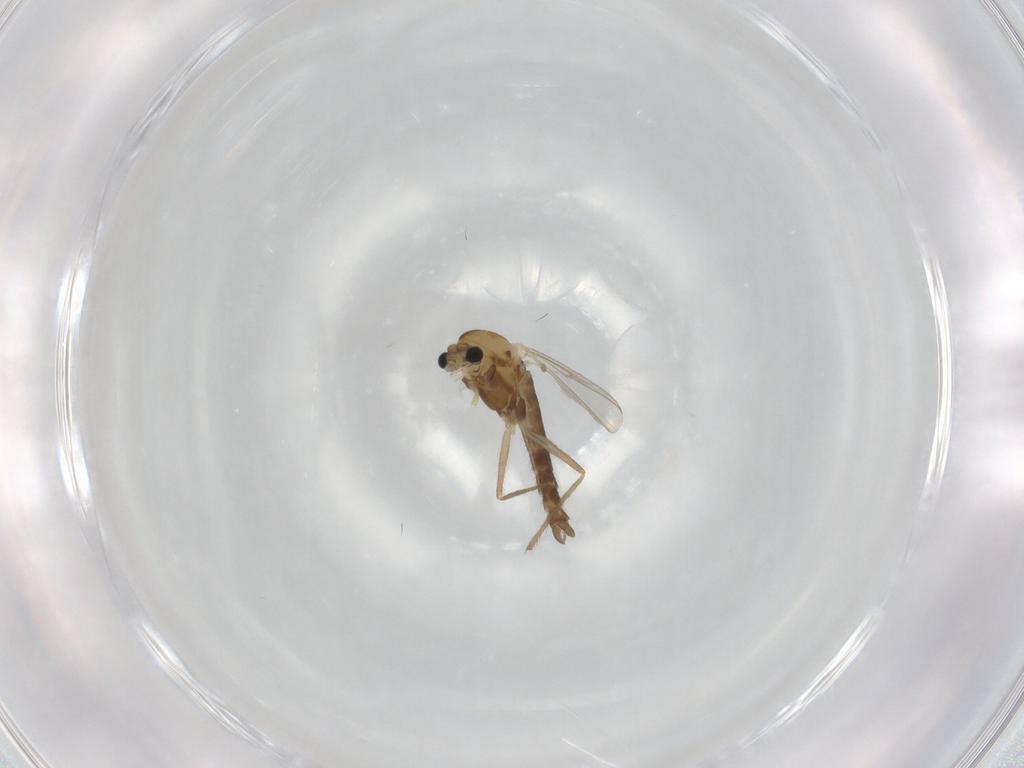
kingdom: Animalia
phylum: Arthropoda
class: Insecta
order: Diptera
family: Chironomidae
